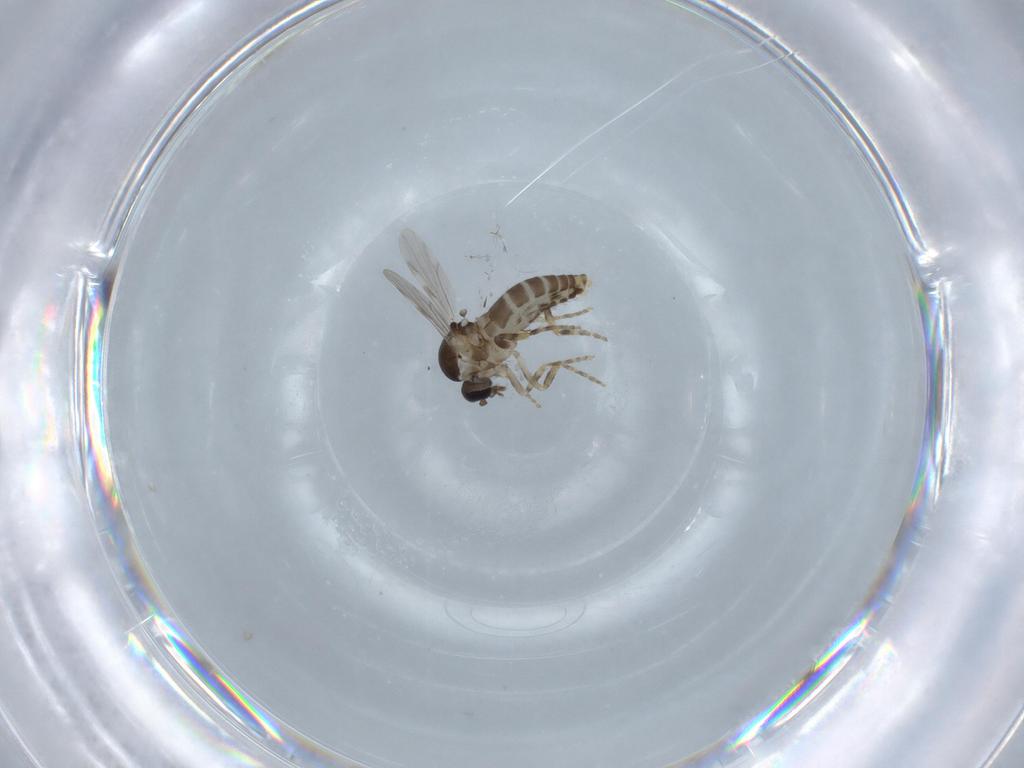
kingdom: Animalia
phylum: Arthropoda
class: Insecta
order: Diptera
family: Ceratopogonidae
